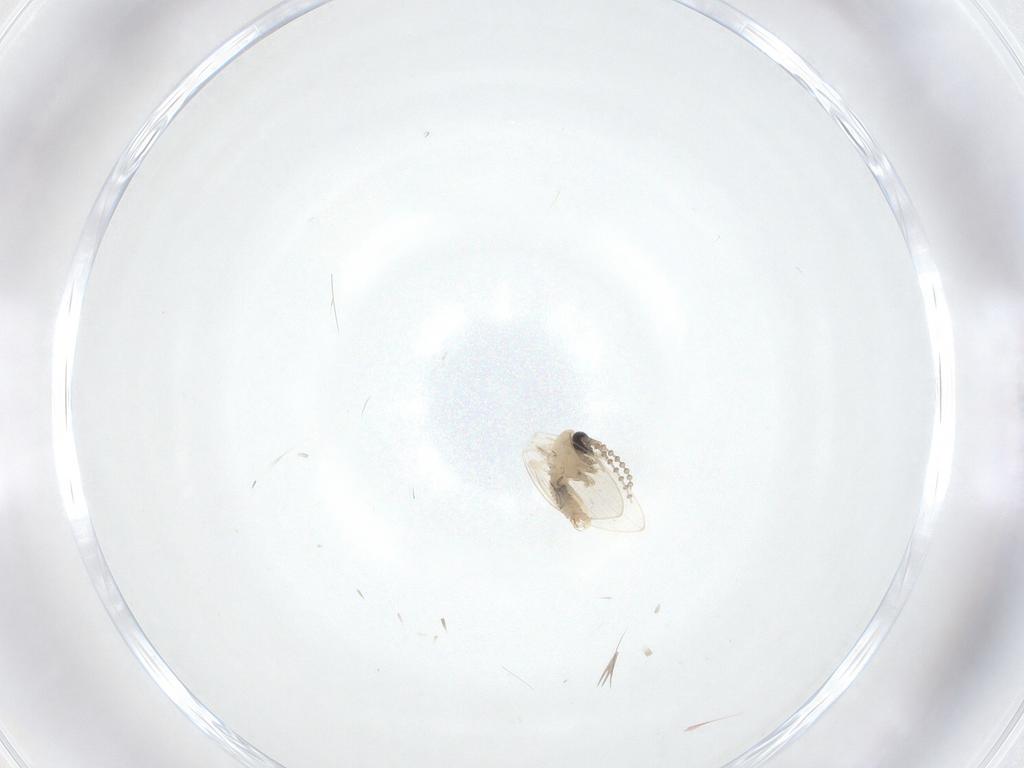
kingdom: Animalia
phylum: Arthropoda
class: Insecta
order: Diptera
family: Psychodidae
